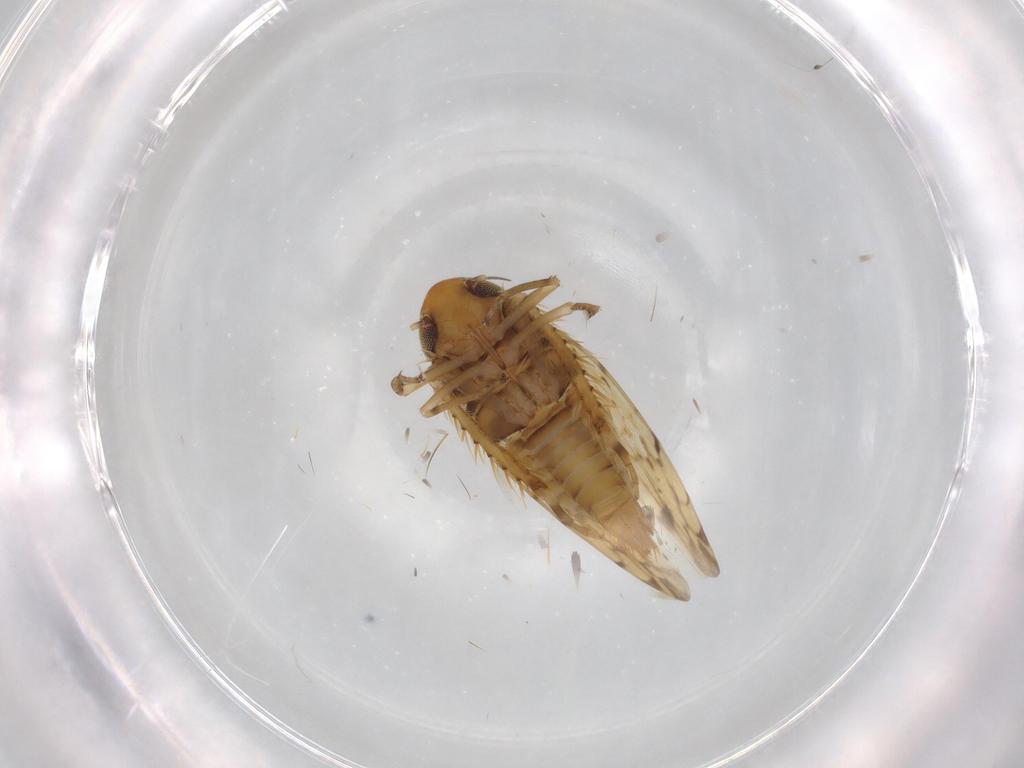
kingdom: Animalia
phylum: Arthropoda
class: Insecta
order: Hemiptera
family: Cicadellidae
